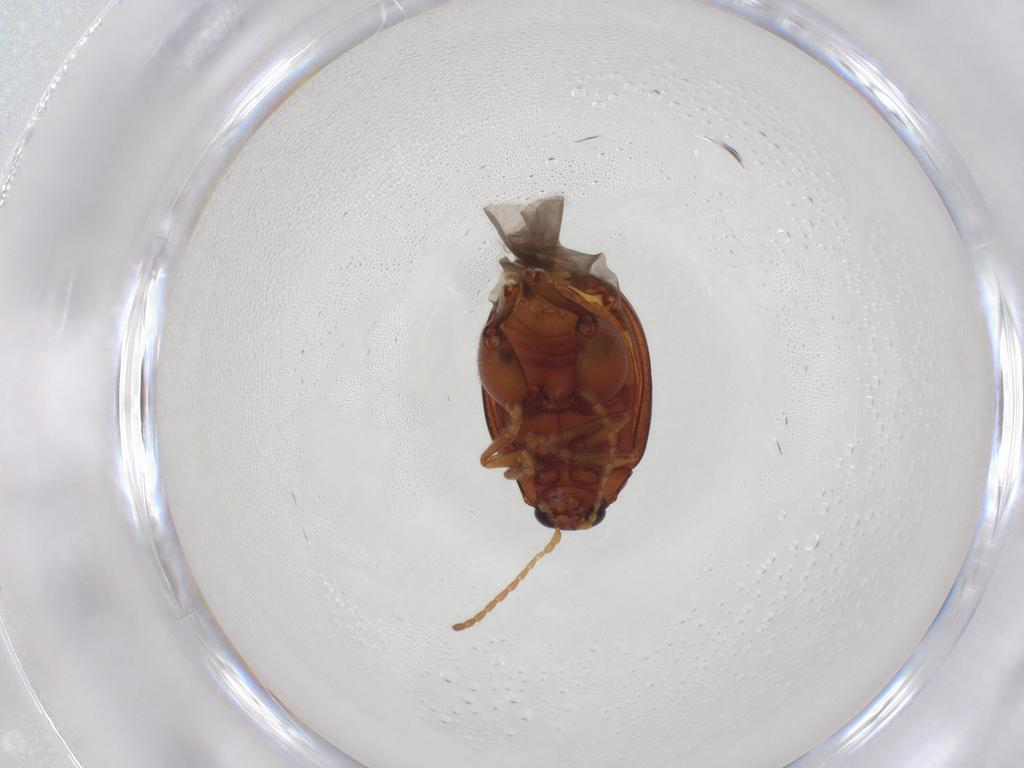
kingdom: Animalia
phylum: Arthropoda
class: Insecta
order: Coleoptera
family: Chrysomelidae
